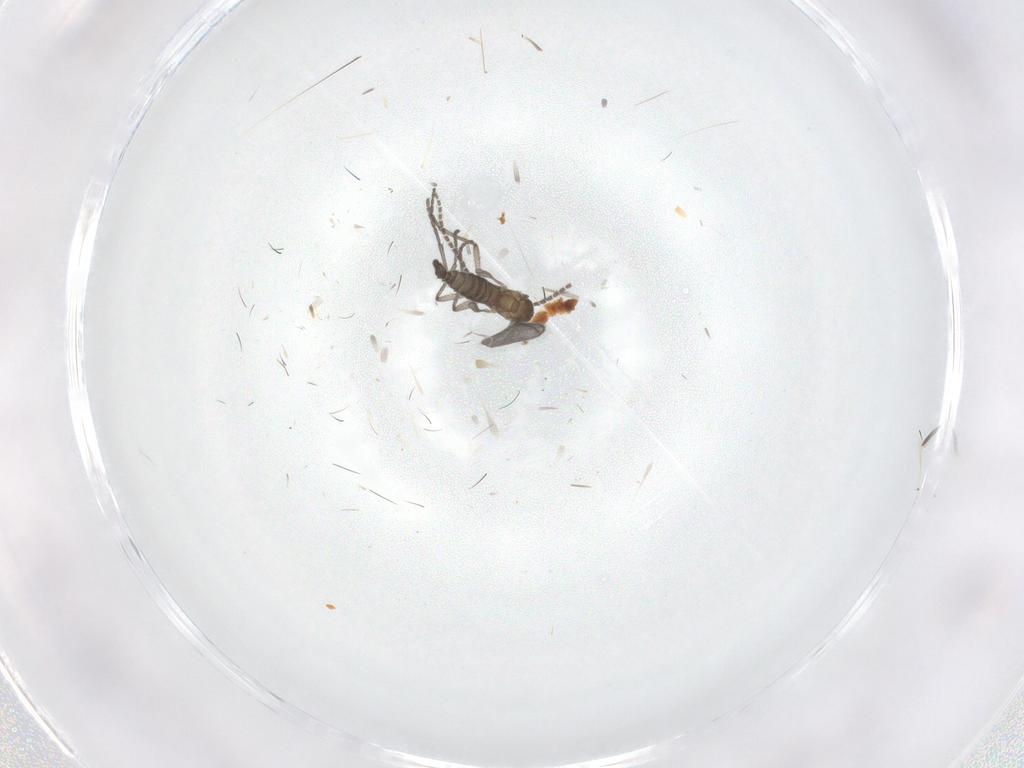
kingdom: Animalia
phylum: Arthropoda
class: Insecta
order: Diptera
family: Sciaridae
